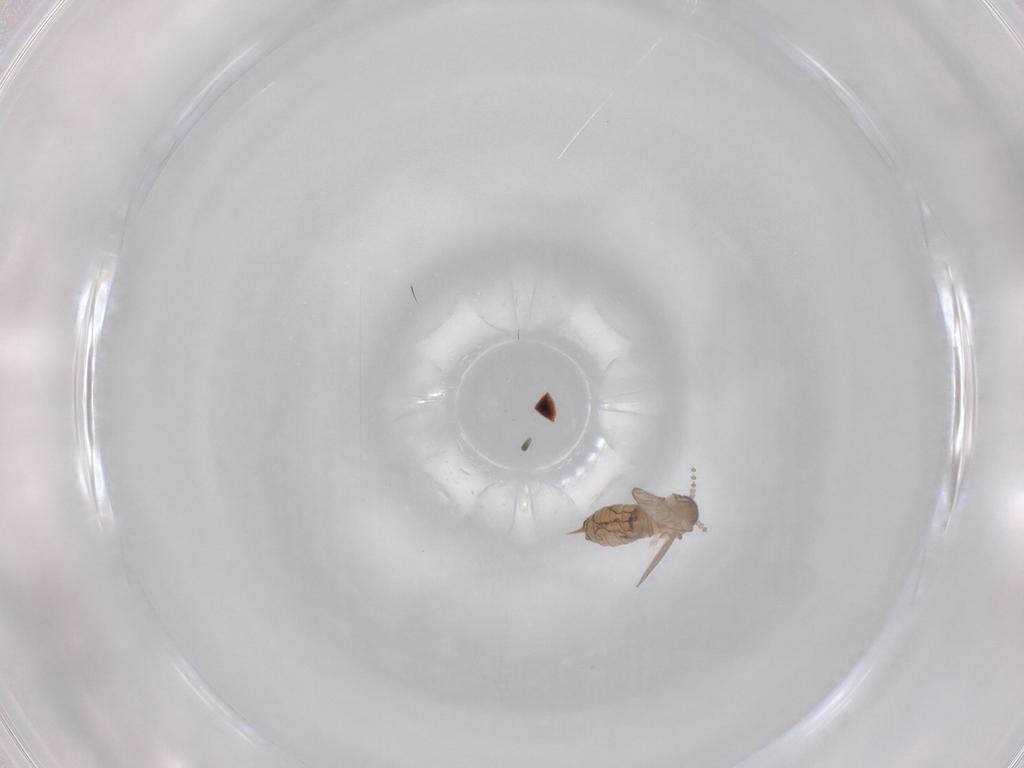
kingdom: Animalia
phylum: Arthropoda
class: Insecta
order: Diptera
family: Psychodidae
